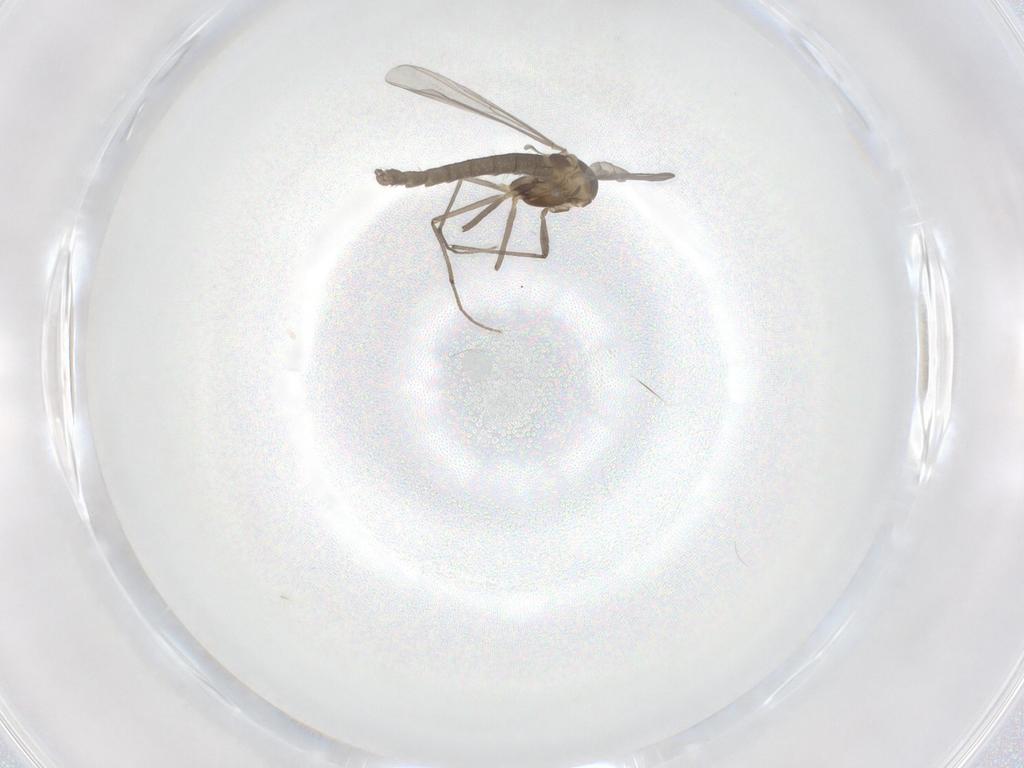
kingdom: Animalia
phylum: Arthropoda
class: Insecta
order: Diptera
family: Chironomidae
